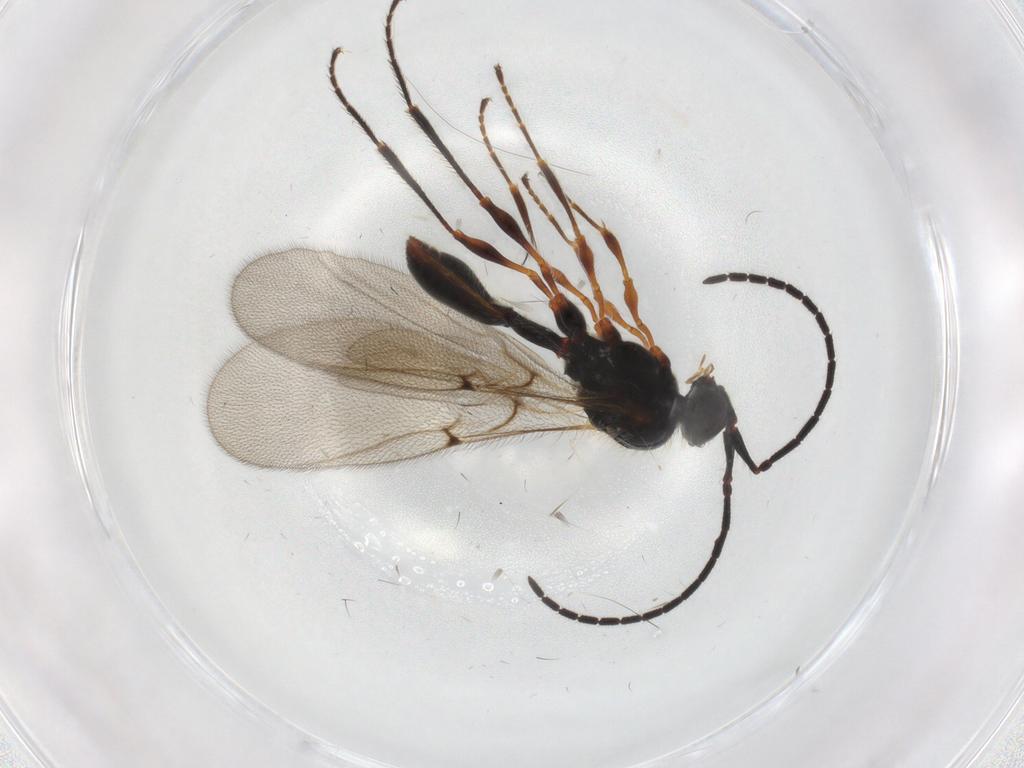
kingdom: Animalia
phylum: Arthropoda
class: Insecta
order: Hymenoptera
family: Diapriidae
